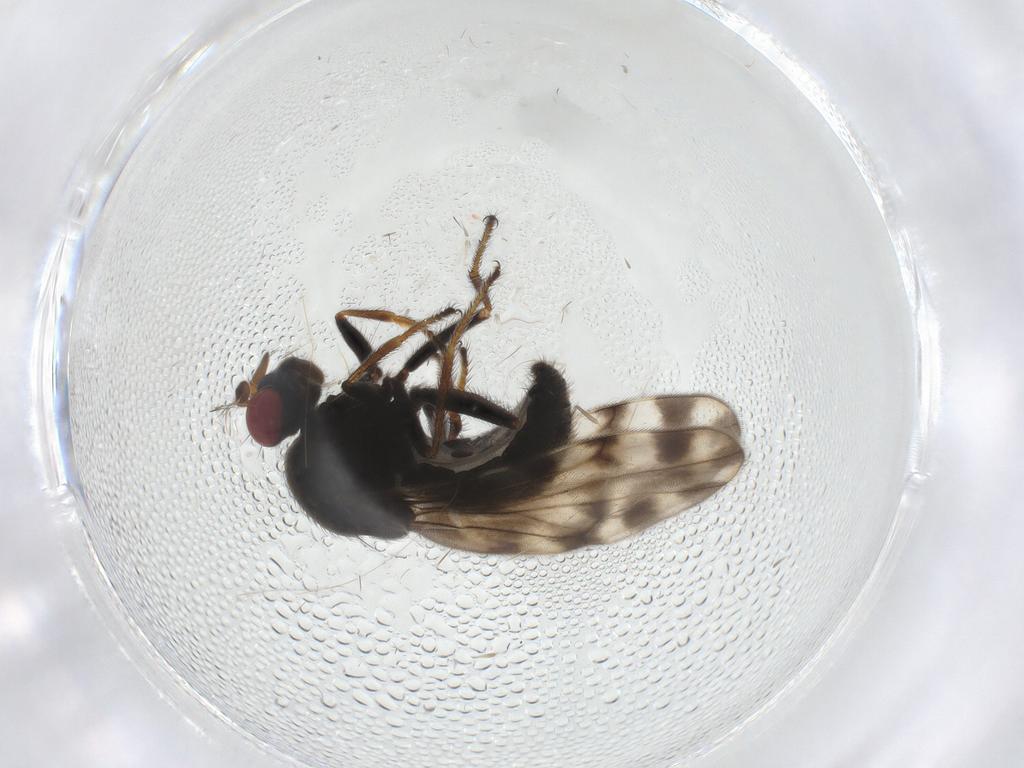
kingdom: Animalia
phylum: Arthropoda
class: Insecta
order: Diptera
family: Ephydridae
